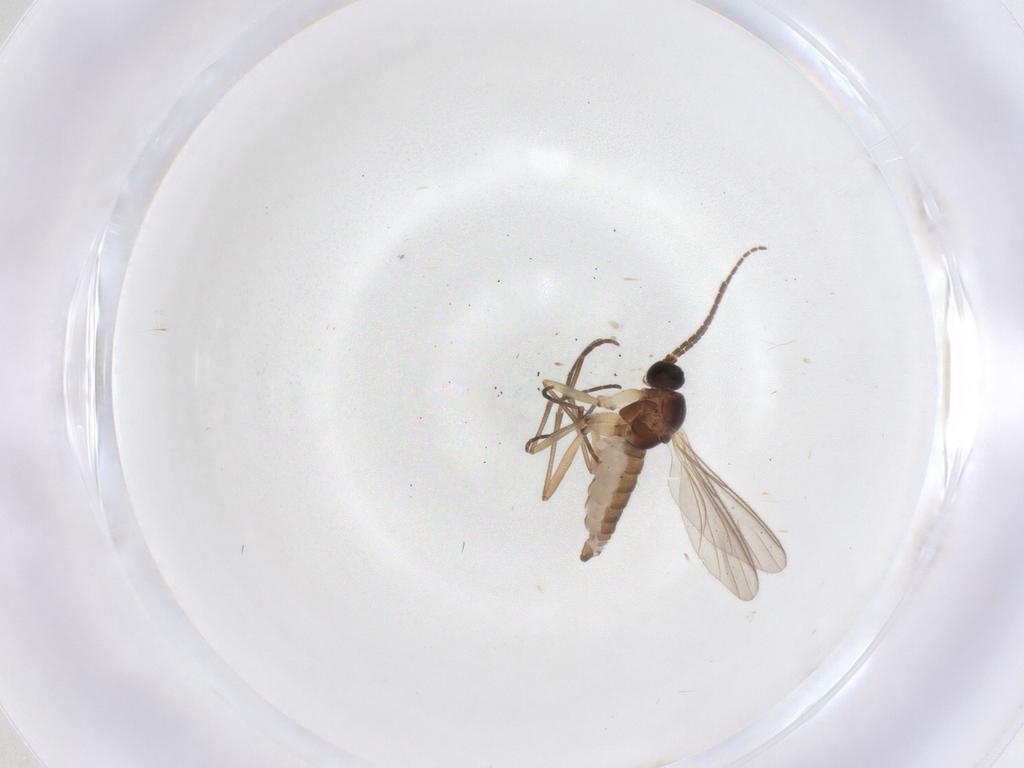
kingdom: Animalia
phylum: Arthropoda
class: Insecta
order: Diptera
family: Sciaridae
